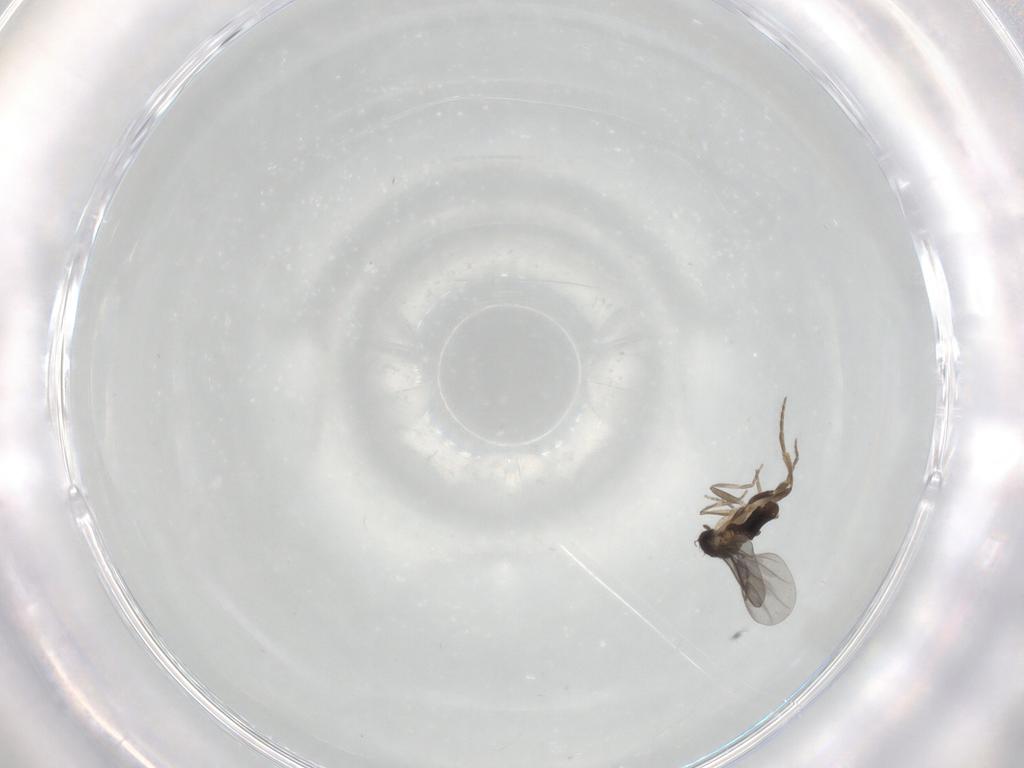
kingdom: Animalia
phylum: Arthropoda
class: Insecta
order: Diptera
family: Chironomidae
